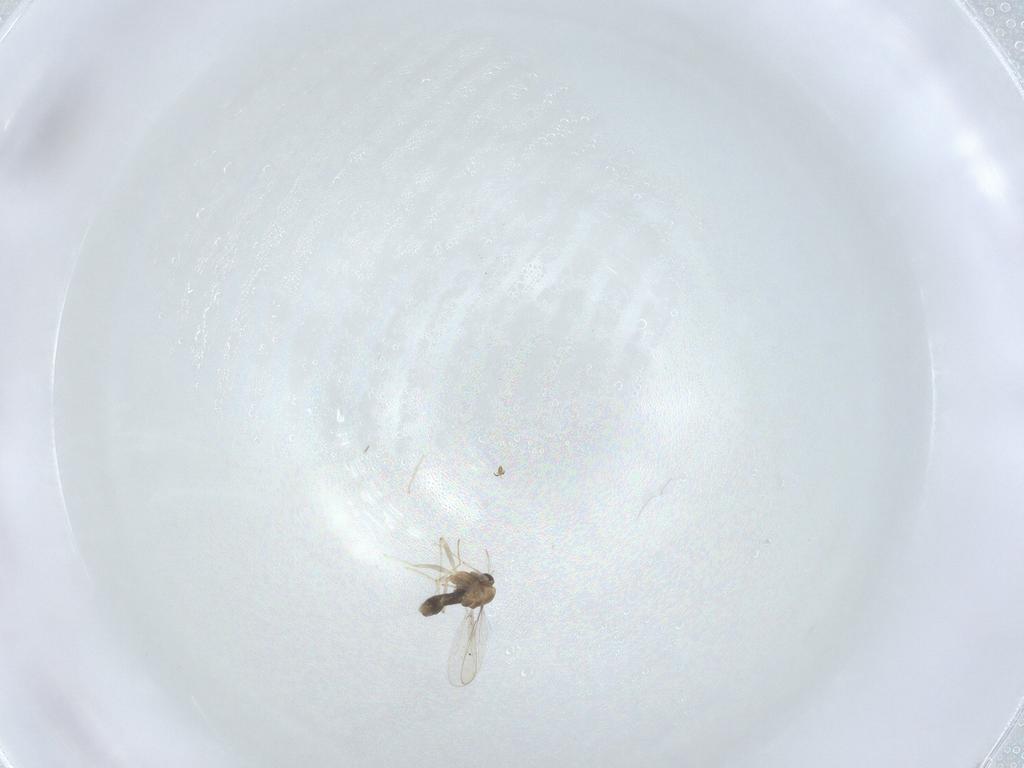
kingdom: Animalia
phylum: Arthropoda
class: Insecta
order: Diptera
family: Chironomidae
